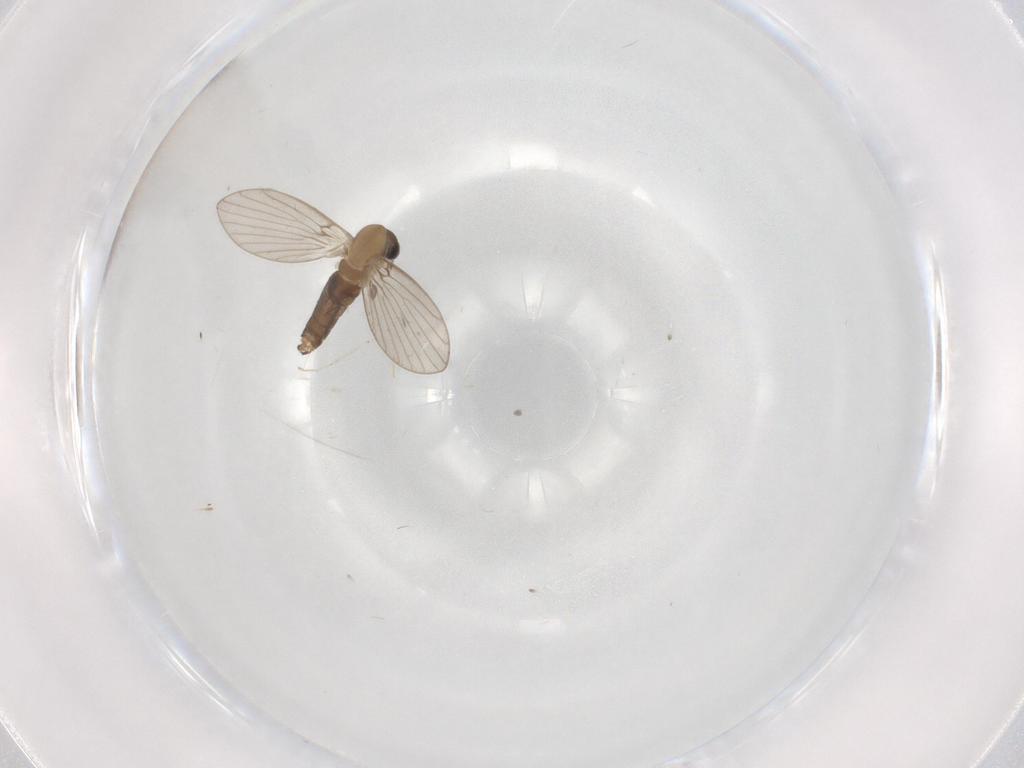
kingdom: Animalia
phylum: Arthropoda
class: Insecta
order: Diptera
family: Psychodidae
